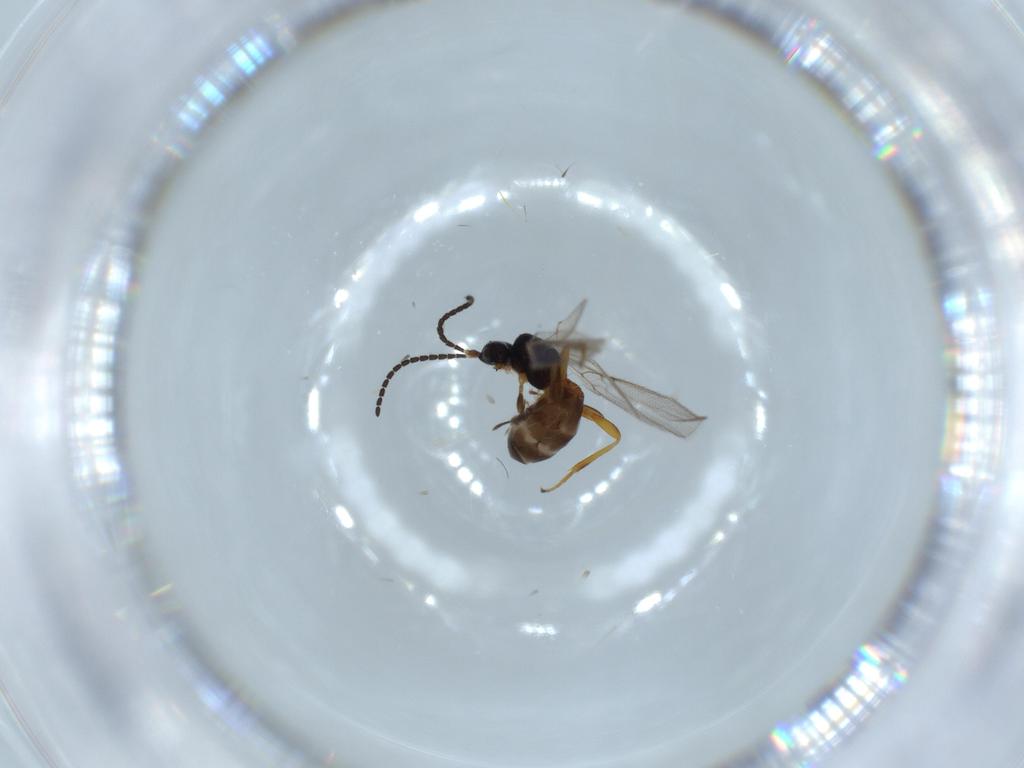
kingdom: Animalia
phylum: Arthropoda
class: Insecta
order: Hymenoptera
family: Braconidae
